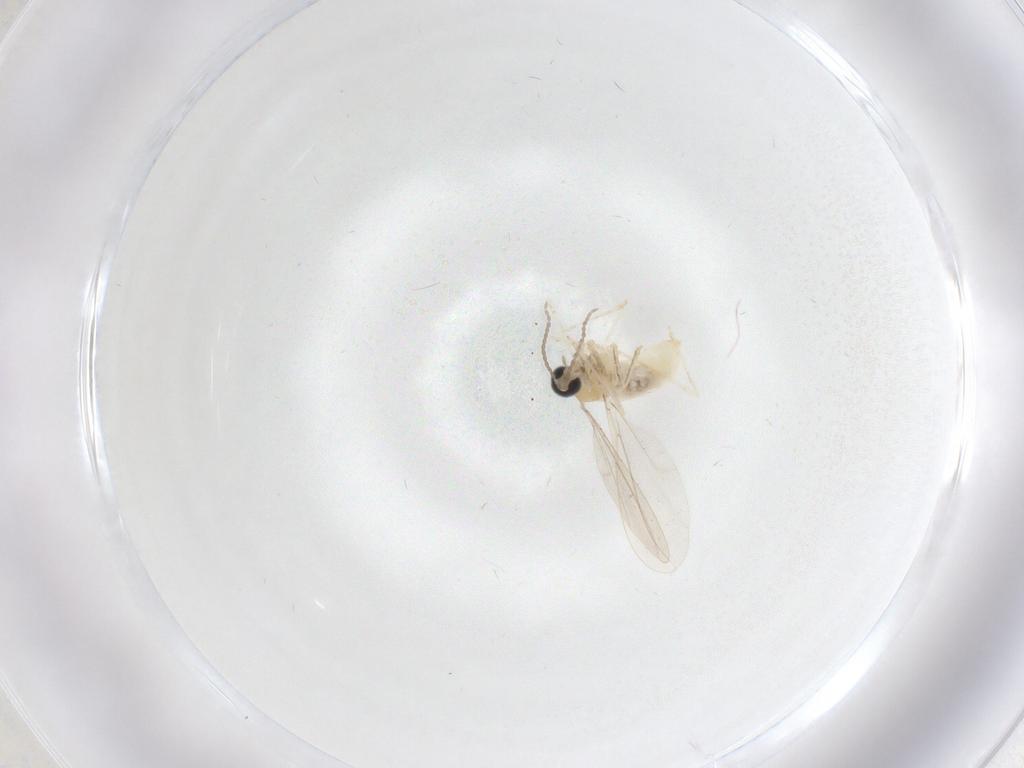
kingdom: Animalia
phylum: Arthropoda
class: Insecta
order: Diptera
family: Cecidomyiidae
